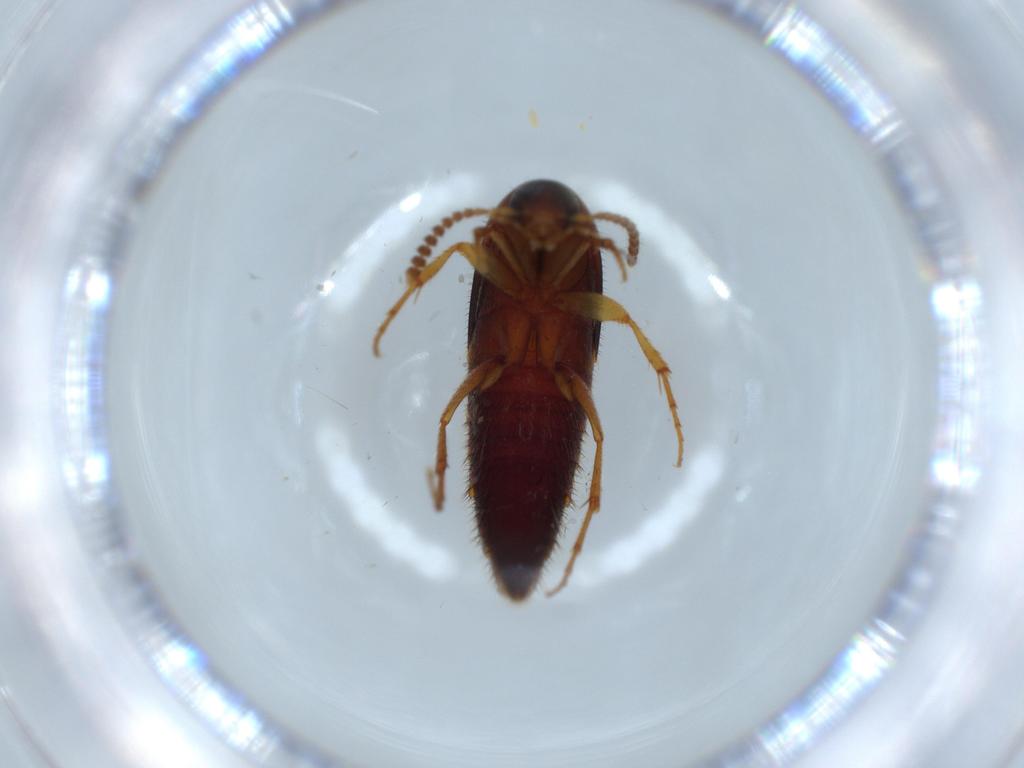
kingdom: Animalia
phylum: Arthropoda
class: Insecta
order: Coleoptera
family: Staphylinidae
